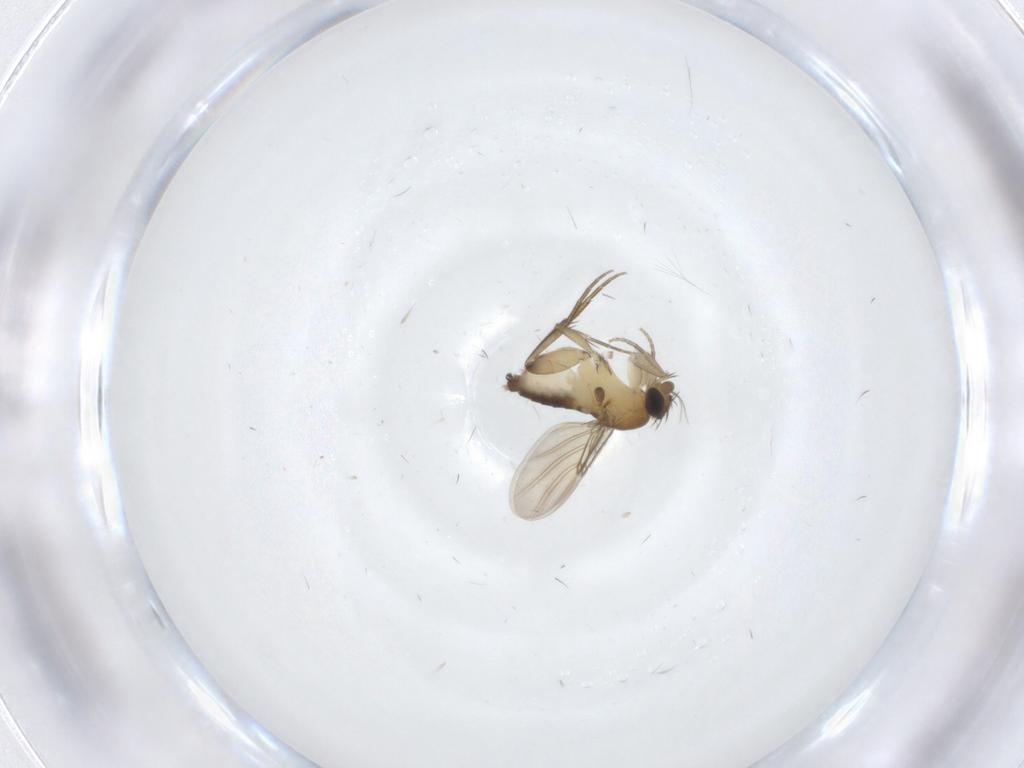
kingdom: Animalia
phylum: Arthropoda
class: Insecta
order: Diptera
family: Phoridae
